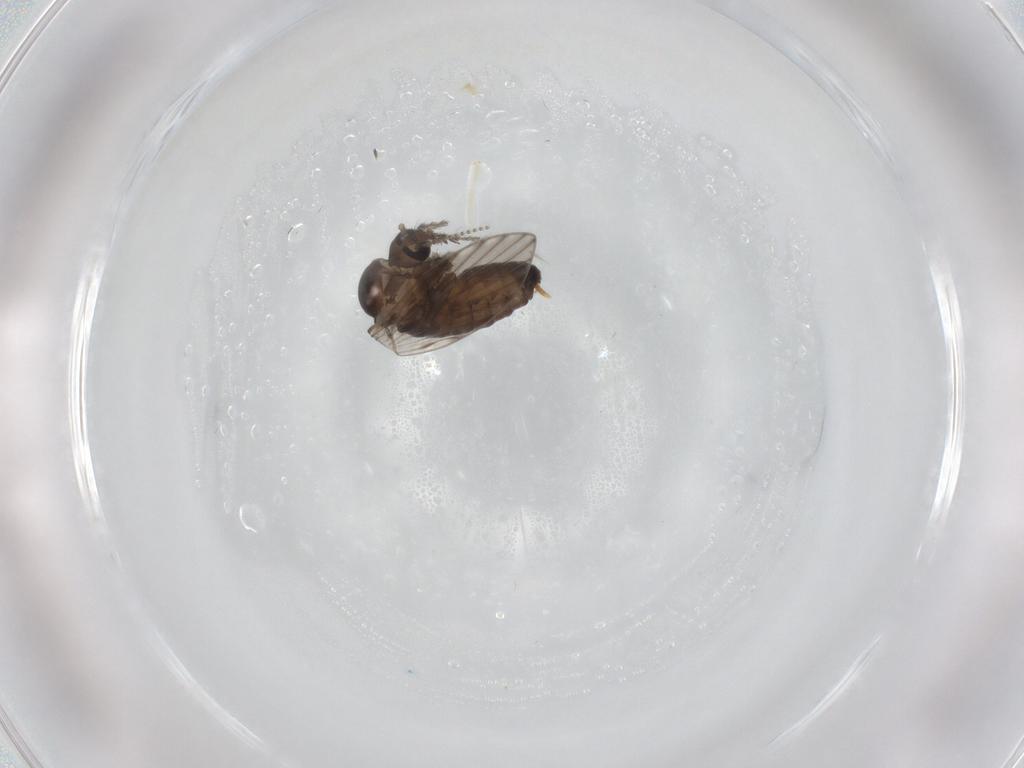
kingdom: Animalia
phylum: Arthropoda
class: Insecta
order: Diptera
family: Psychodidae
